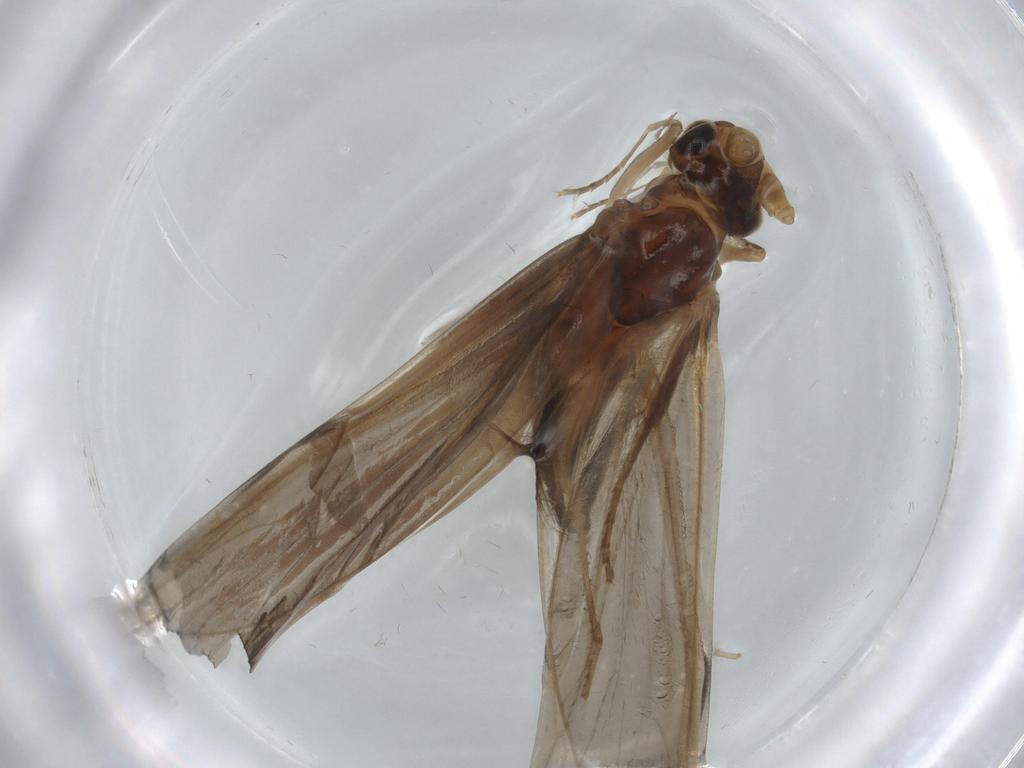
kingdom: Animalia
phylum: Arthropoda
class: Insecta
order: Trichoptera
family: Leptoceridae
